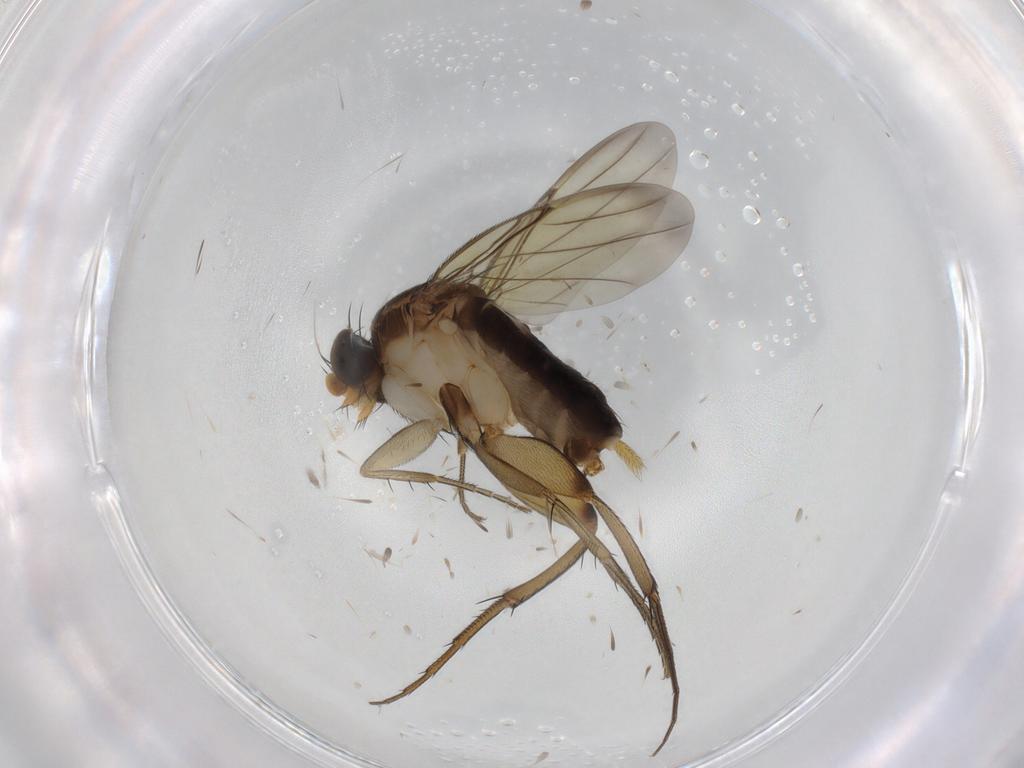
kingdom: Animalia
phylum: Arthropoda
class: Insecta
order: Diptera
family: Phoridae
